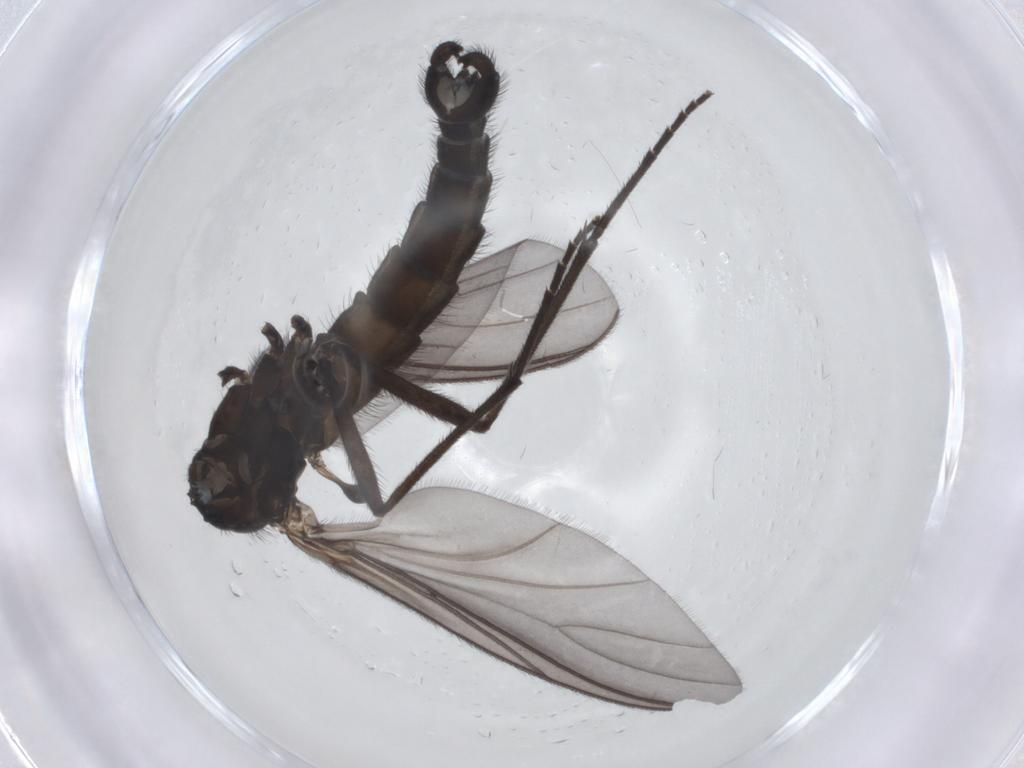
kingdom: Animalia
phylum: Arthropoda
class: Insecta
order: Diptera
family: Sciaridae
